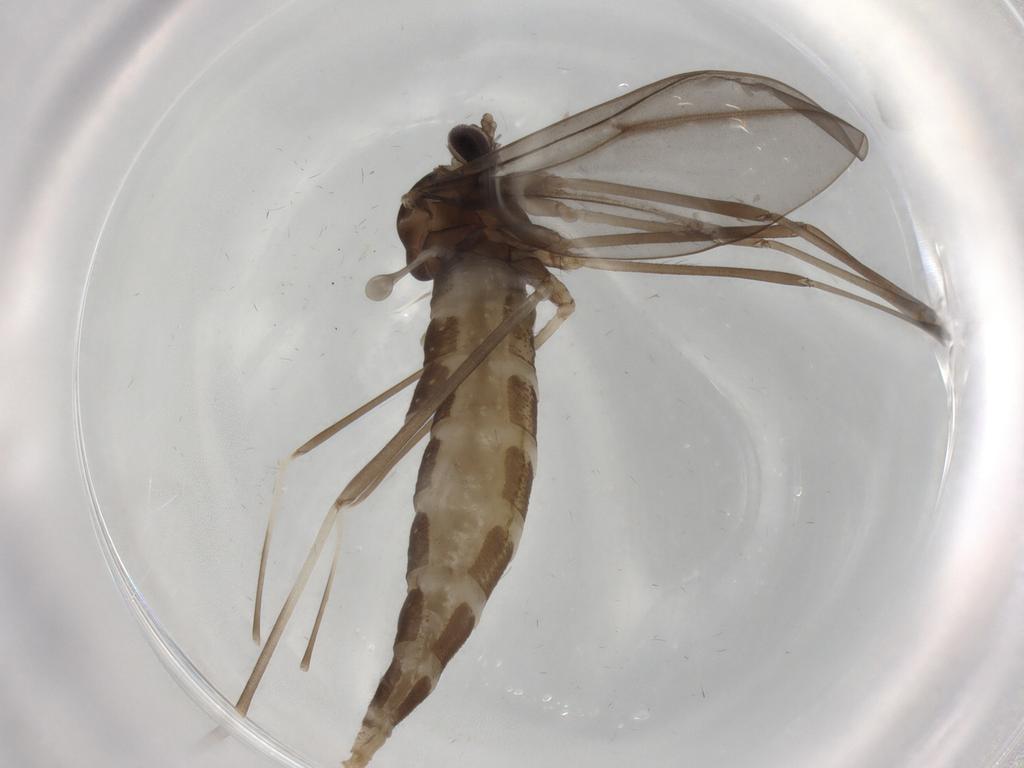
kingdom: Animalia
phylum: Arthropoda
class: Insecta
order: Diptera
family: Cecidomyiidae
